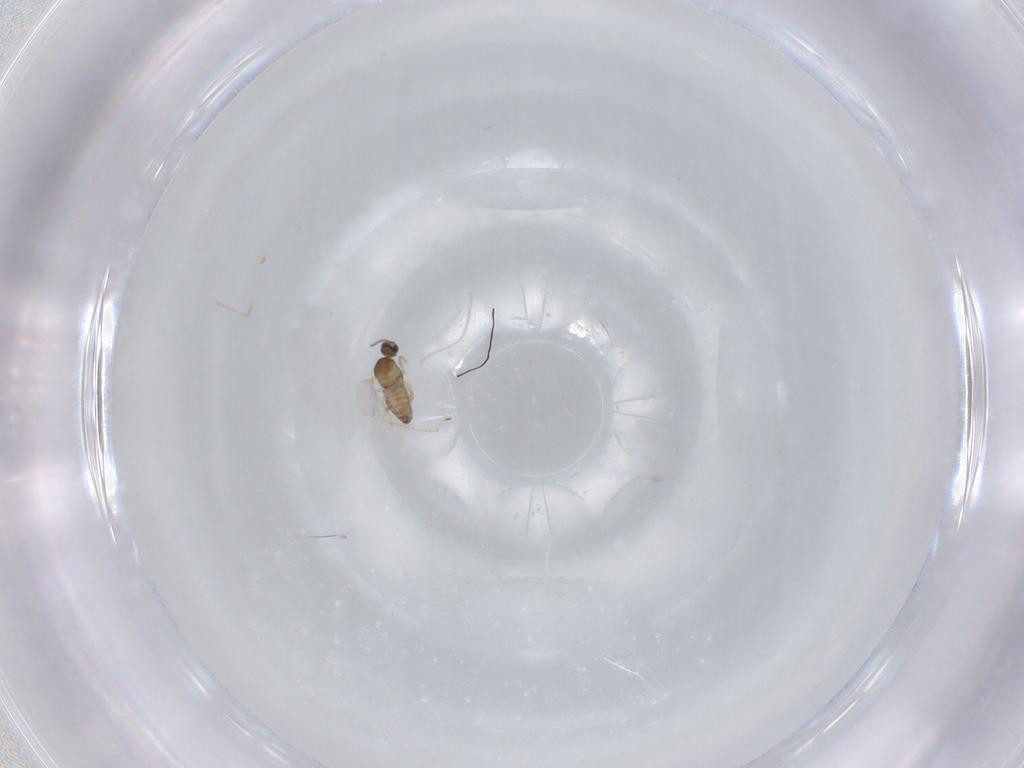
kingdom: Animalia
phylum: Arthropoda
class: Insecta
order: Diptera
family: Cecidomyiidae
